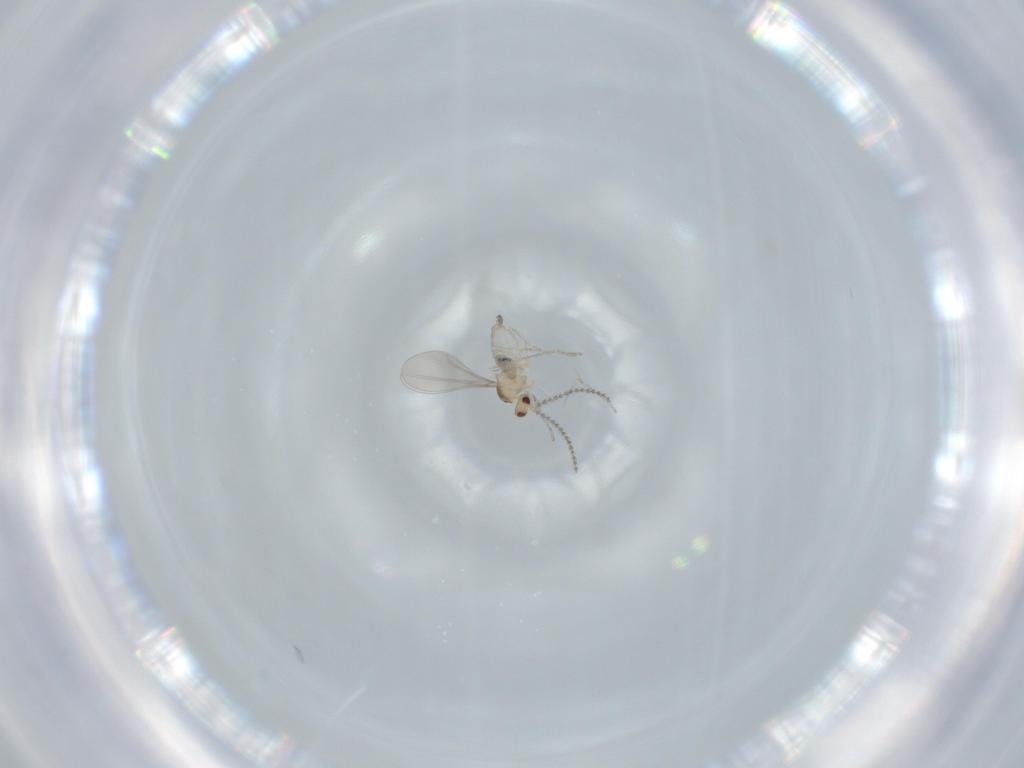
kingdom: Animalia
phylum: Arthropoda
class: Insecta
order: Diptera
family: Cecidomyiidae
